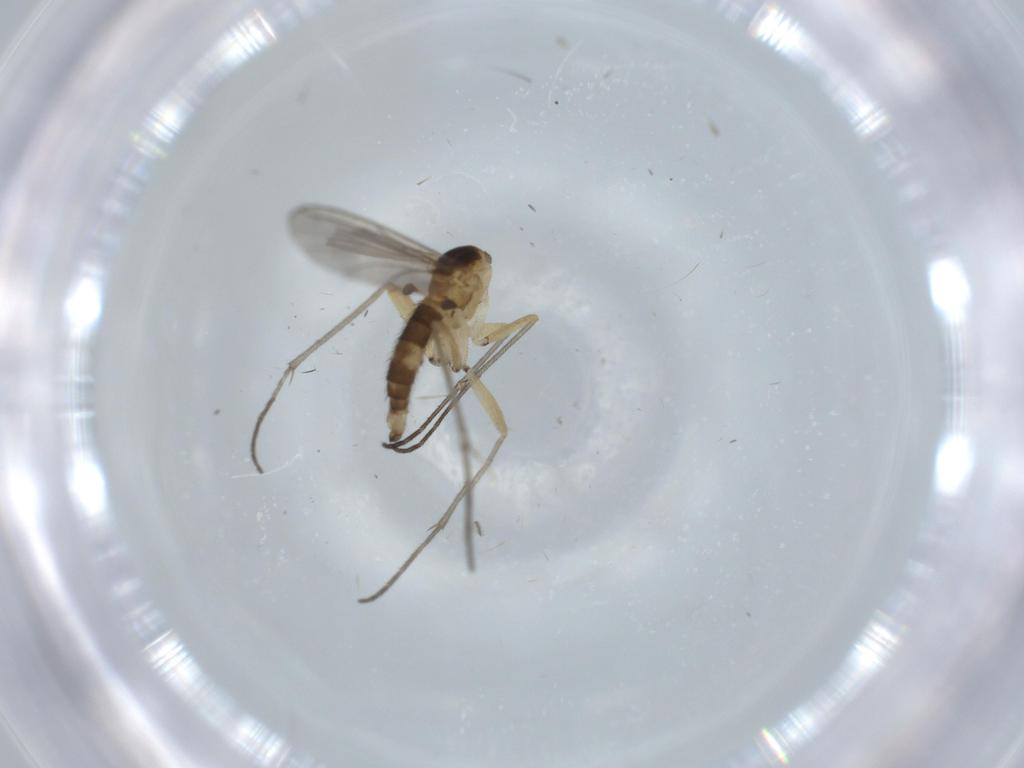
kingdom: Animalia
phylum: Arthropoda
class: Insecta
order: Diptera
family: Sciaridae
